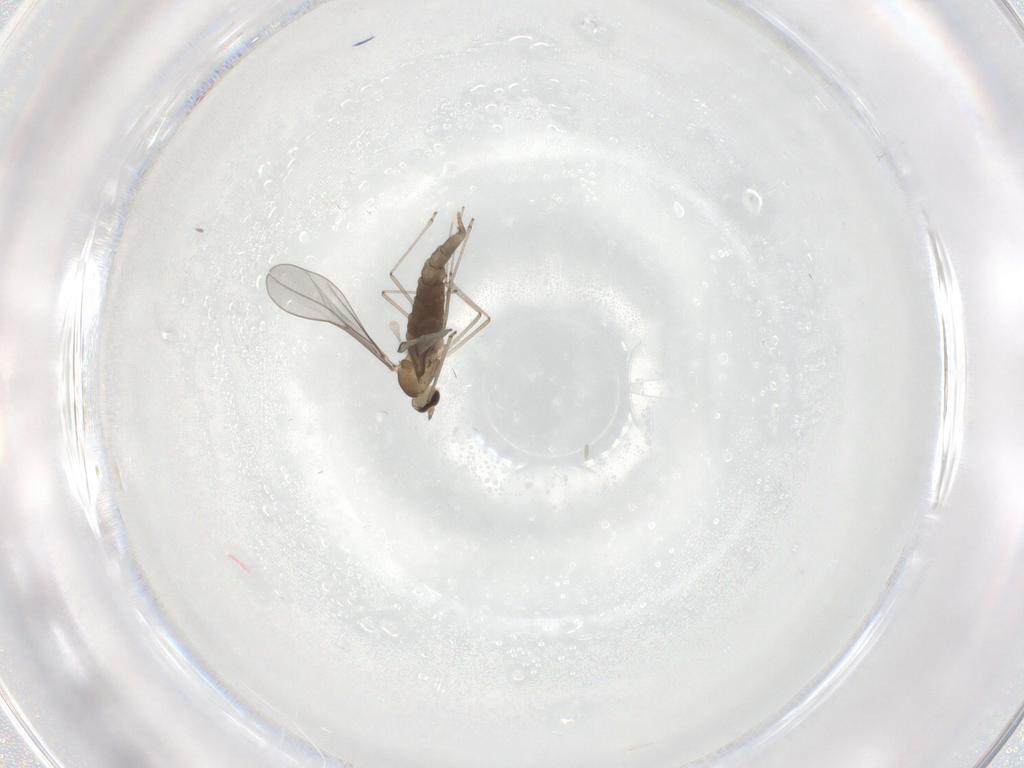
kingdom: Animalia
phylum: Arthropoda
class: Insecta
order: Diptera
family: Cecidomyiidae
